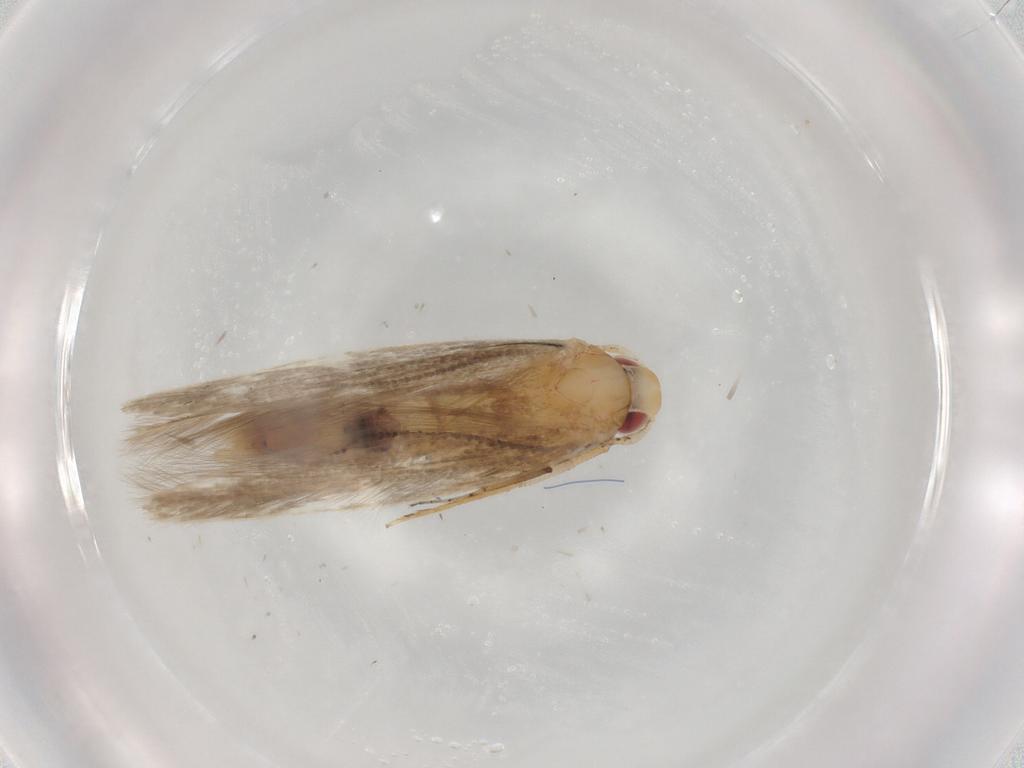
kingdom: Animalia
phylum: Arthropoda
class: Insecta
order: Lepidoptera
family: Cosmopterigidae
